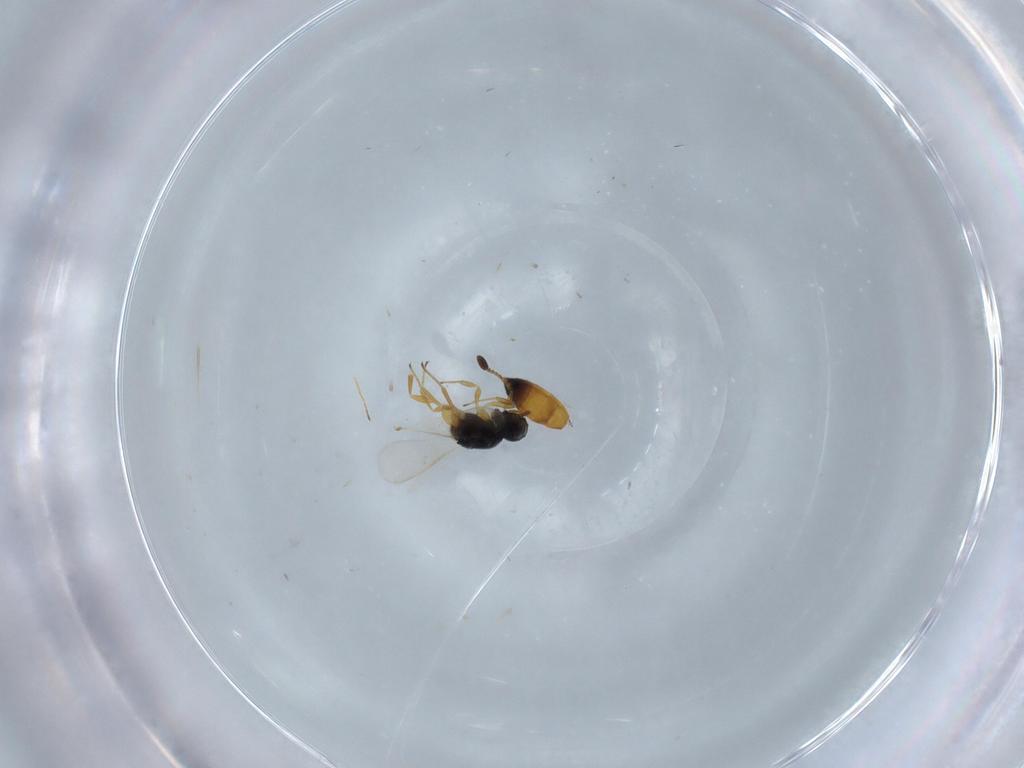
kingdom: Animalia
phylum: Arthropoda
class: Insecta
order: Hymenoptera
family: Scelionidae
